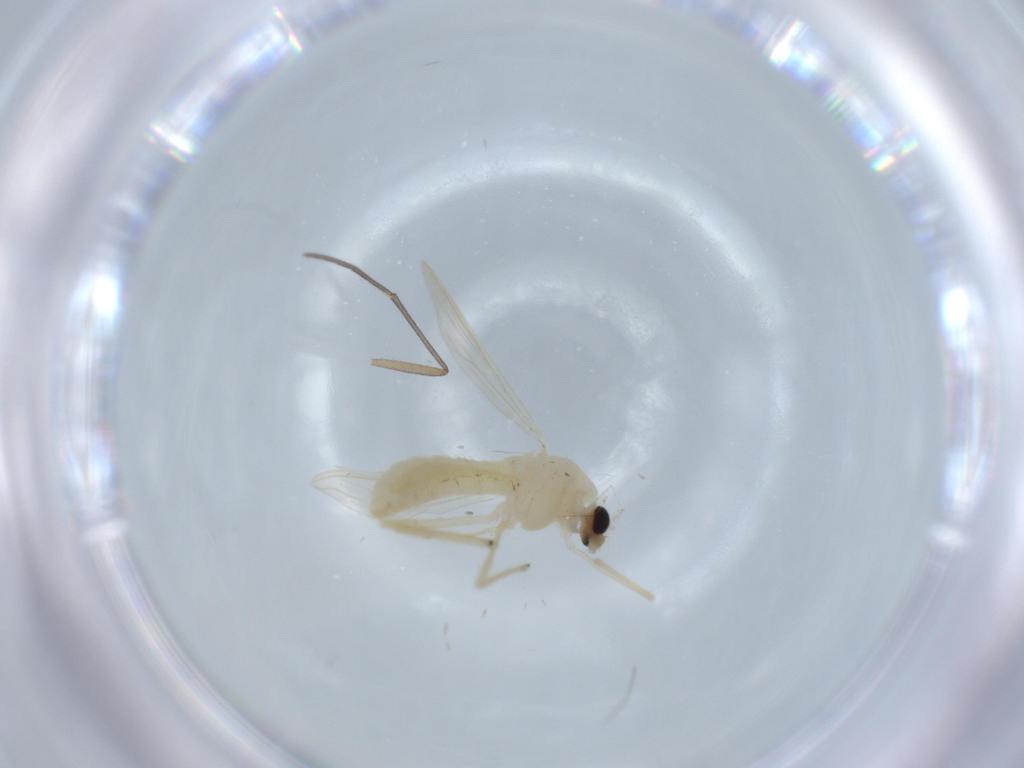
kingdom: Animalia
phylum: Arthropoda
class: Insecta
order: Diptera
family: Chironomidae
